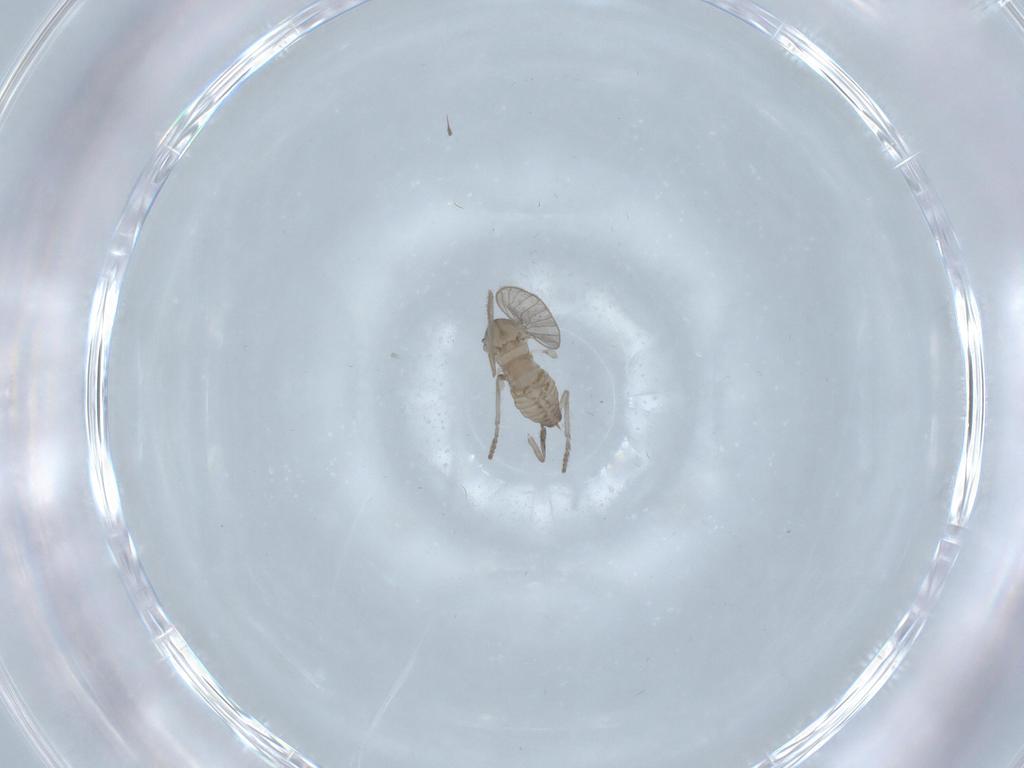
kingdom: Animalia
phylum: Arthropoda
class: Insecta
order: Diptera
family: Psychodidae
